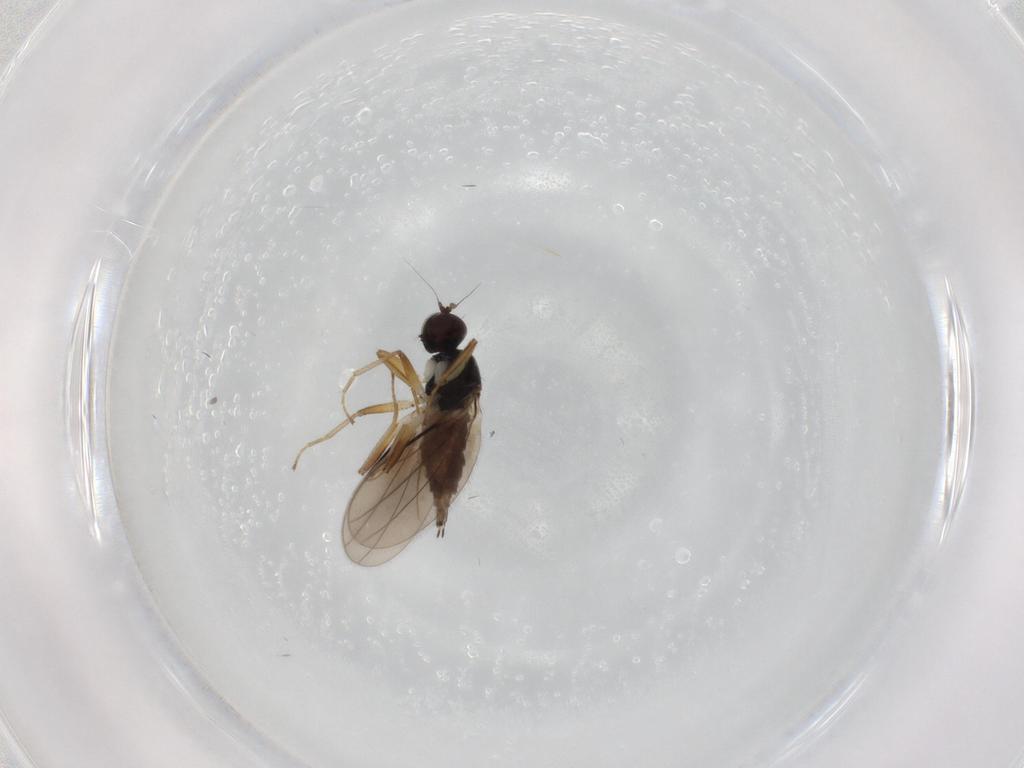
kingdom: Animalia
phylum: Arthropoda
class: Insecta
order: Diptera
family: Hybotidae
